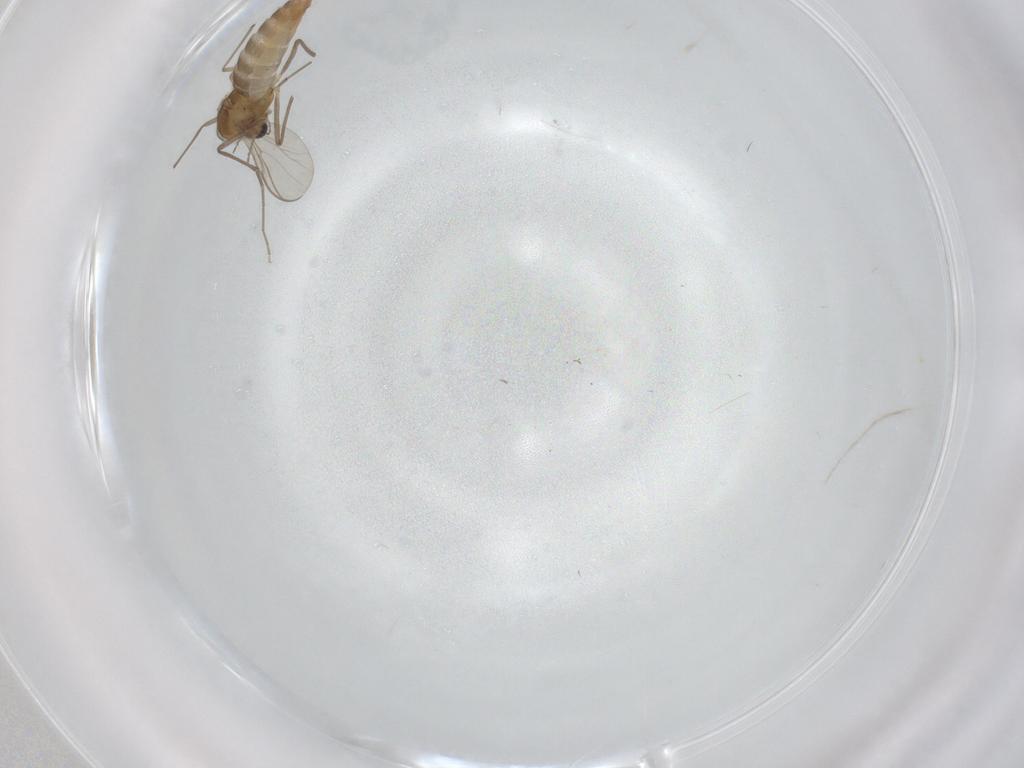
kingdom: Animalia
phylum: Arthropoda
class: Insecta
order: Diptera
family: Chironomidae
